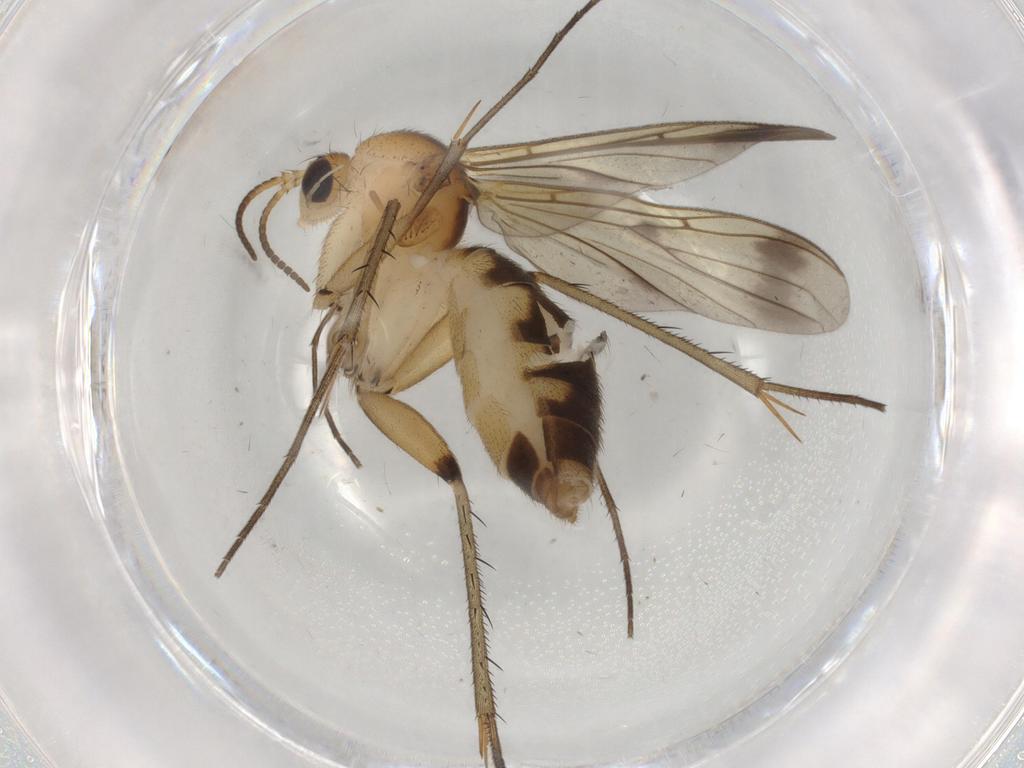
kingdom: Animalia
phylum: Arthropoda
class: Insecta
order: Diptera
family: Mycetophilidae
